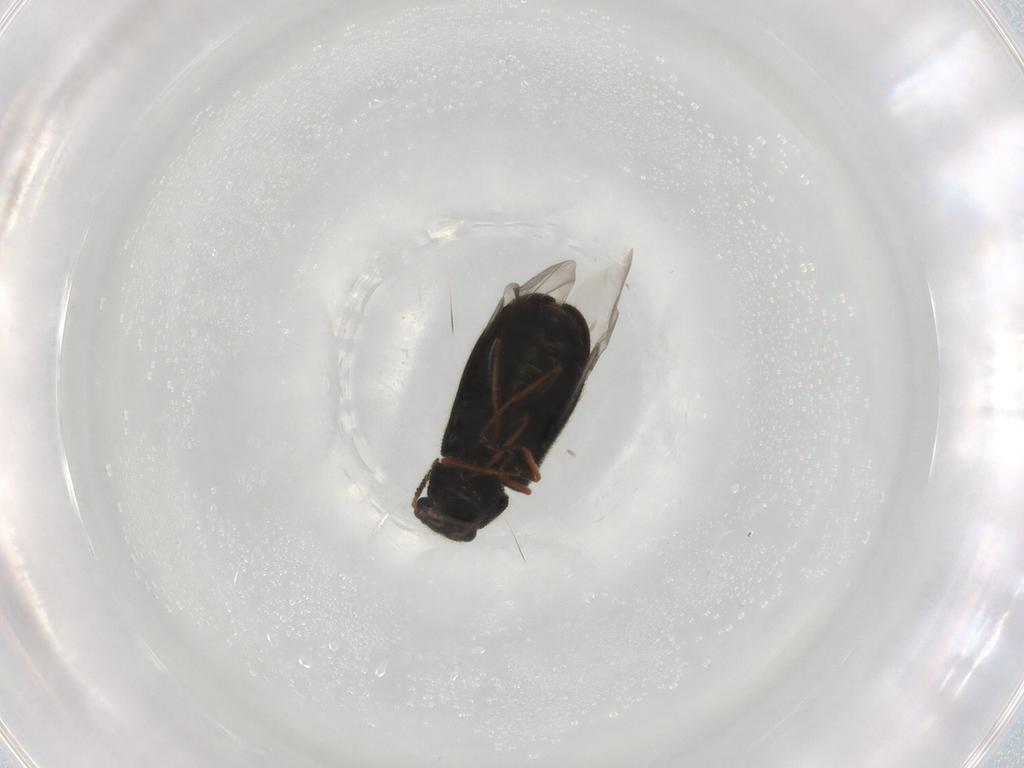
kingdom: Animalia
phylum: Arthropoda
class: Insecta
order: Coleoptera
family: Melyridae
